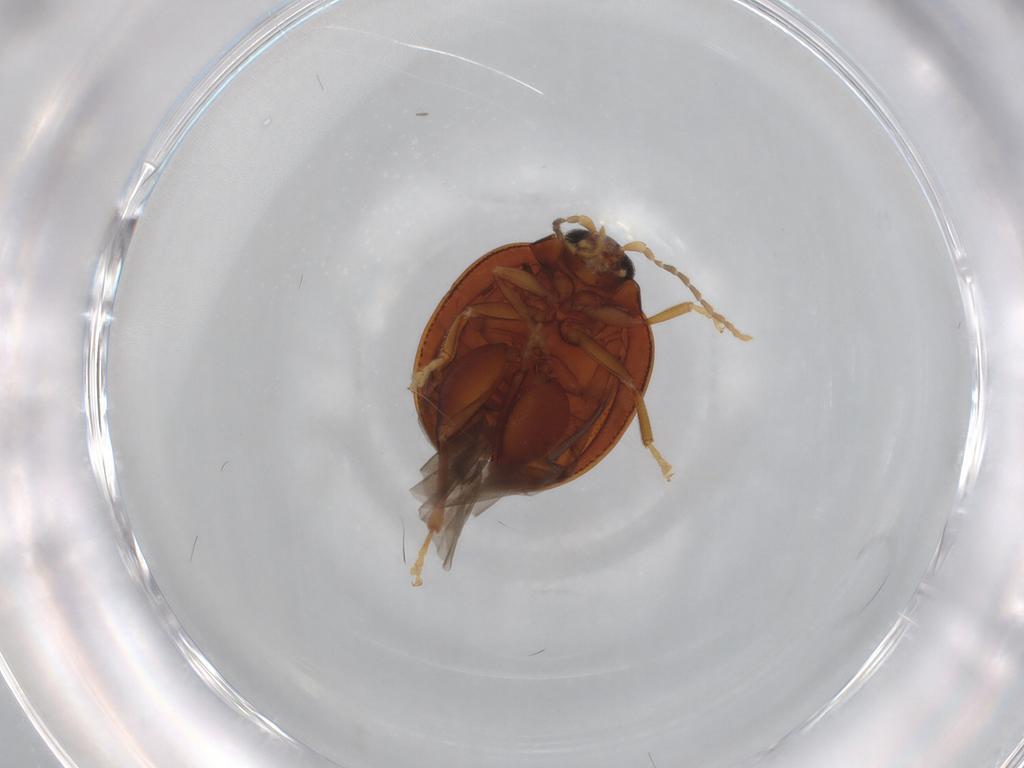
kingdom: Animalia
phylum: Arthropoda
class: Insecta
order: Coleoptera
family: Chrysomelidae
